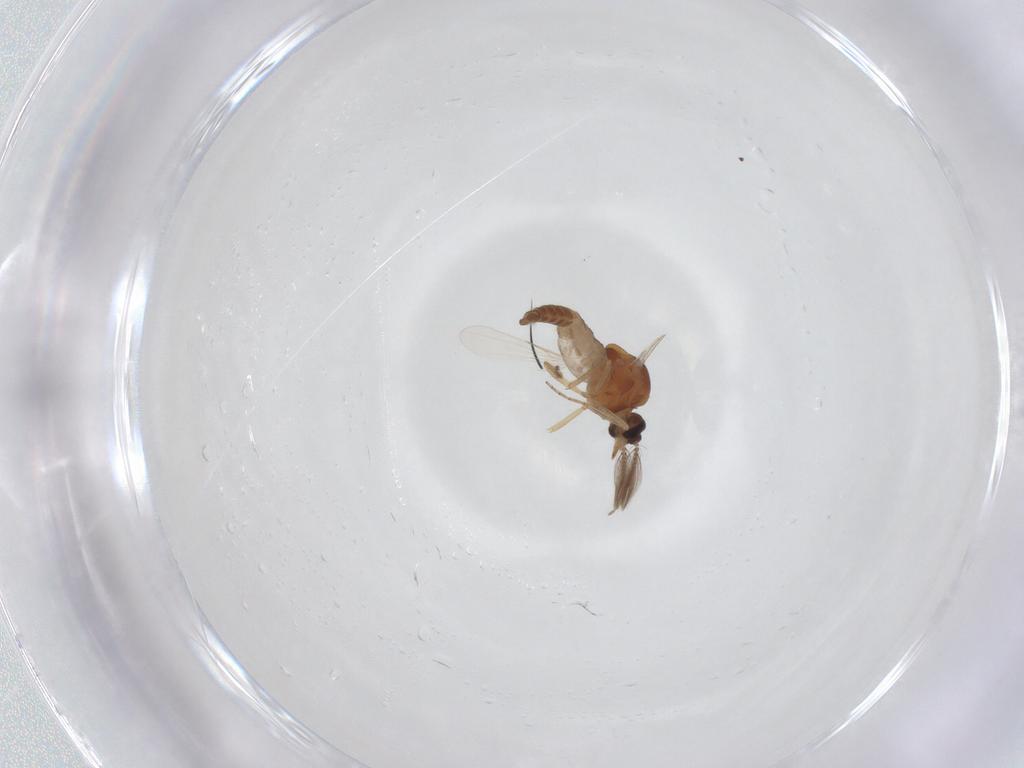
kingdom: Animalia
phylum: Arthropoda
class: Insecta
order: Diptera
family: Ceratopogonidae
